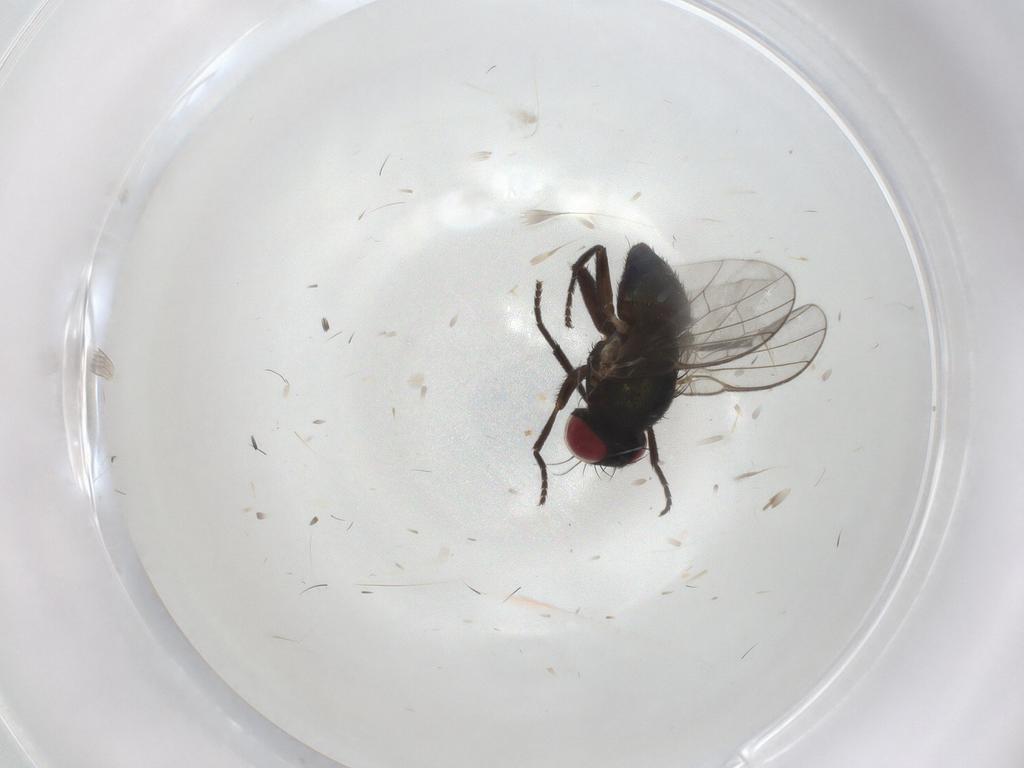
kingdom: Animalia
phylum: Arthropoda
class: Insecta
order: Diptera
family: Agromyzidae
